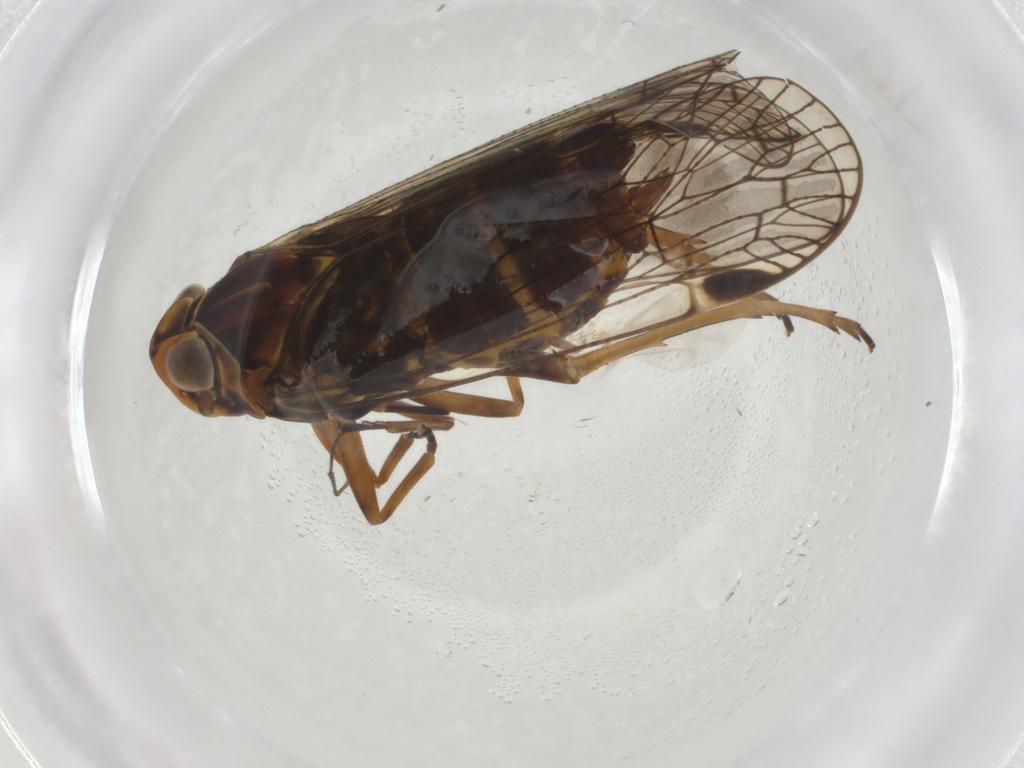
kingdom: Animalia
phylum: Arthropoda
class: Insecta
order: Hemiptera
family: Cixiidae
